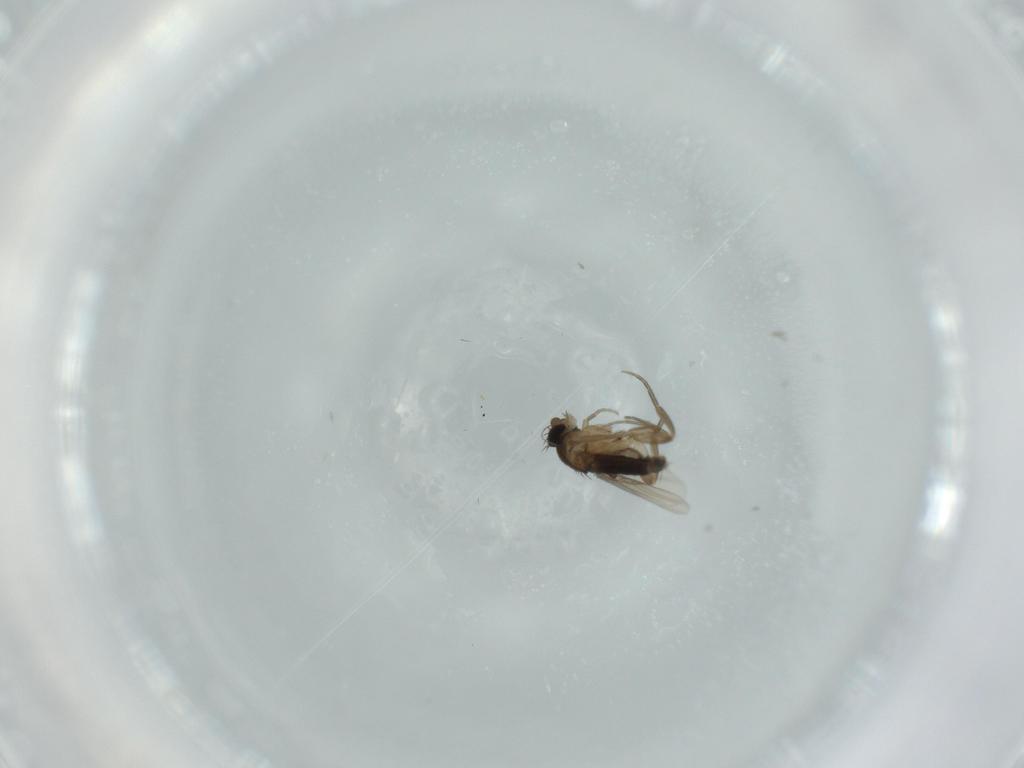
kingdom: Animalia
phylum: Arthropoda
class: Insecta
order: Diptera
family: Phoridae
